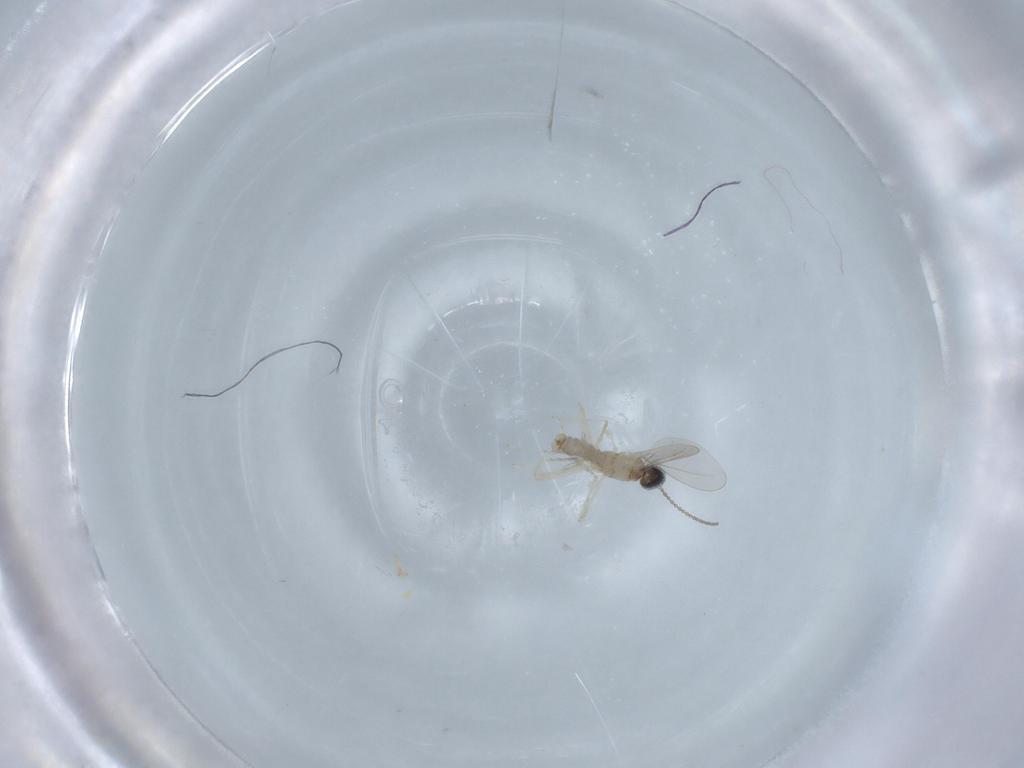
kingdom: Animalia
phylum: Arthropoda
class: Insecta
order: Diptera
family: Cecidomyiidae
